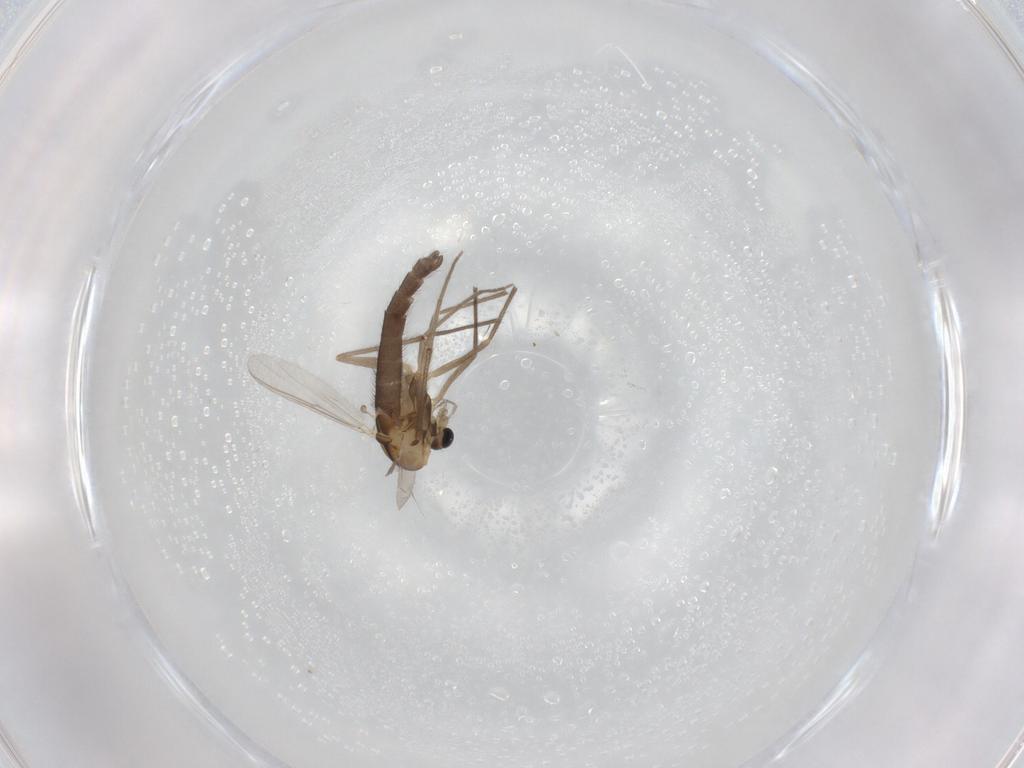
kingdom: Animalia
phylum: Arthropoda
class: Insecta
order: Diptera
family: Chironomidae
